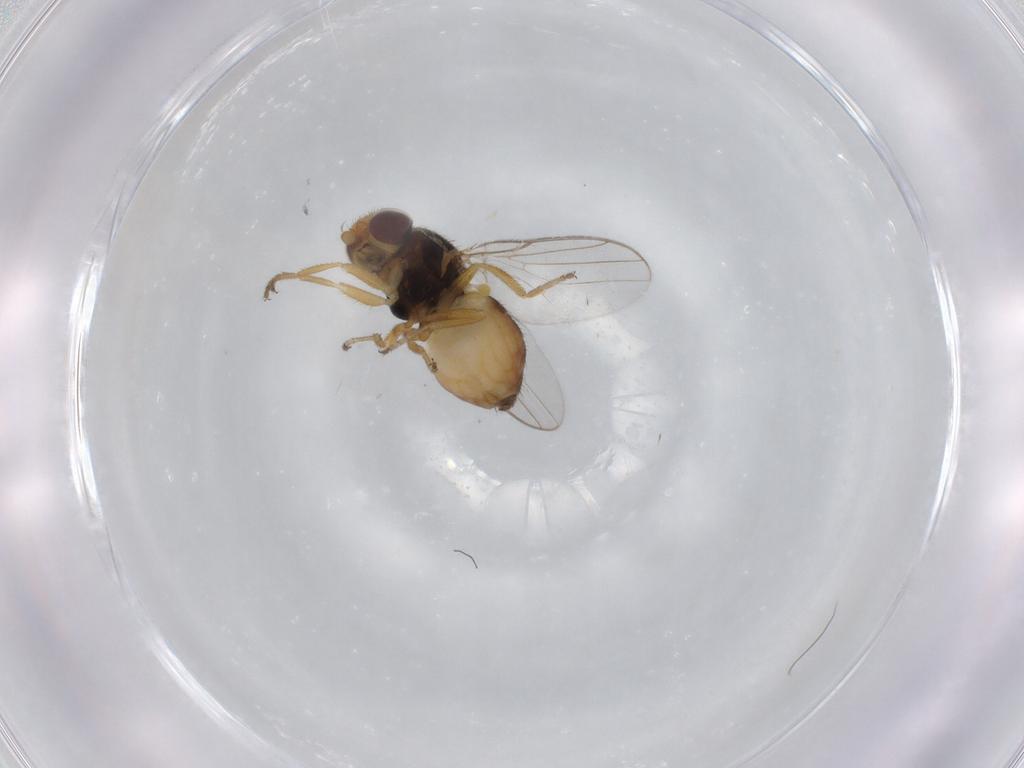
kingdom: Animalia
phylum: Arthropoda
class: Insecta
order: Diptera
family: Chloropidae
